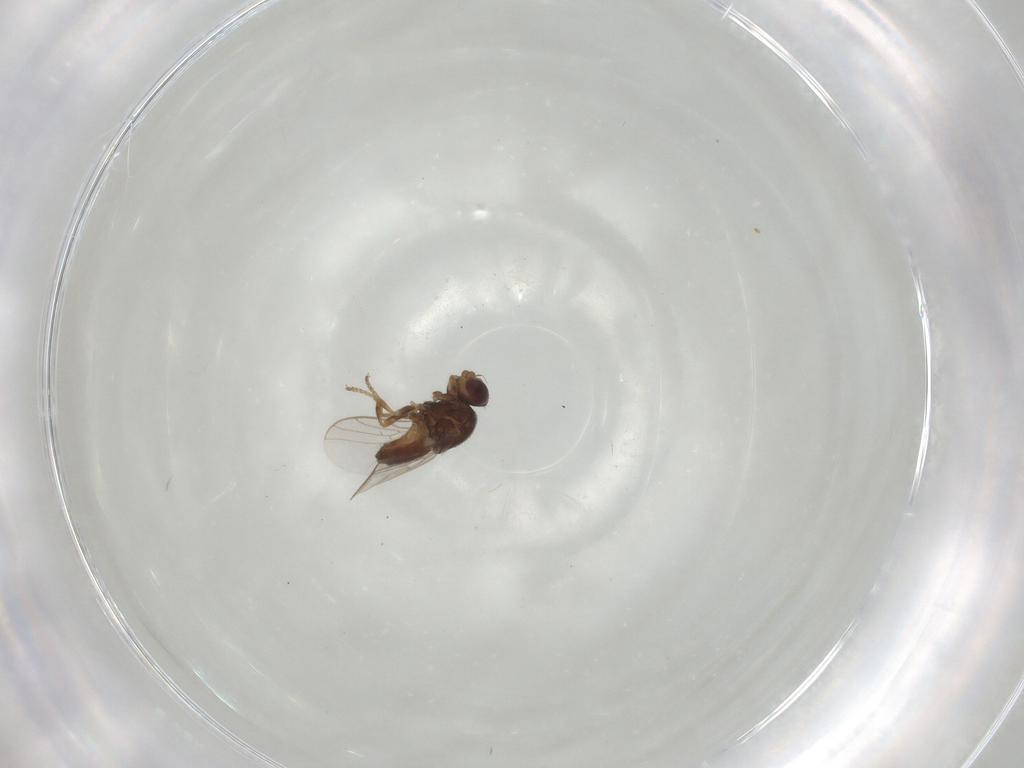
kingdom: Animalia
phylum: Arthropoda
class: Insecta
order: Diptera
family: Chloropidae
